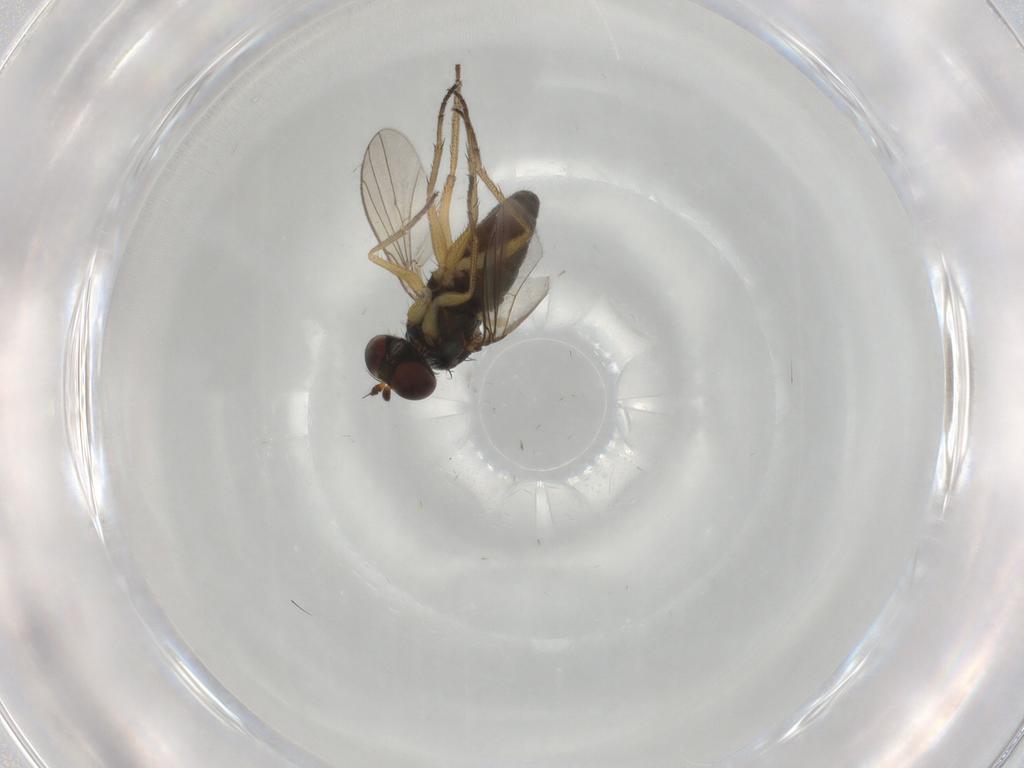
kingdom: Animalia
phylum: Arthropoda
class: Insecta
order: Diptera
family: Dolichopodidae
